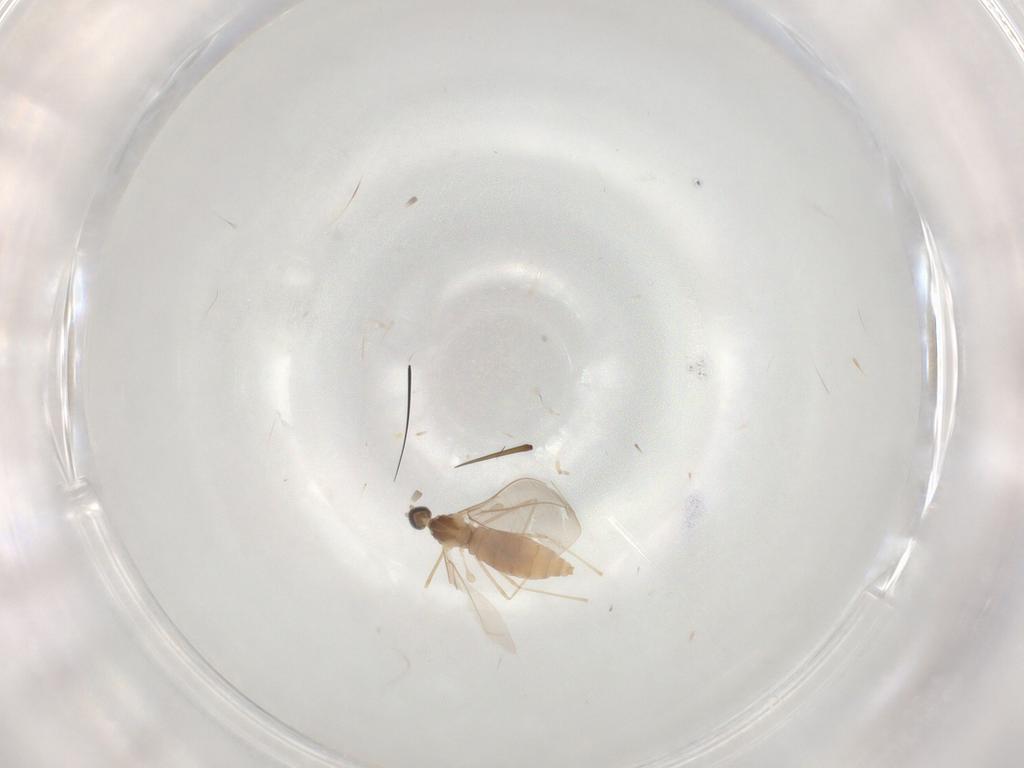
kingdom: Animalia
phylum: Arthropoda
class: Insecta
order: Diptera
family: Cecidomyiidae
